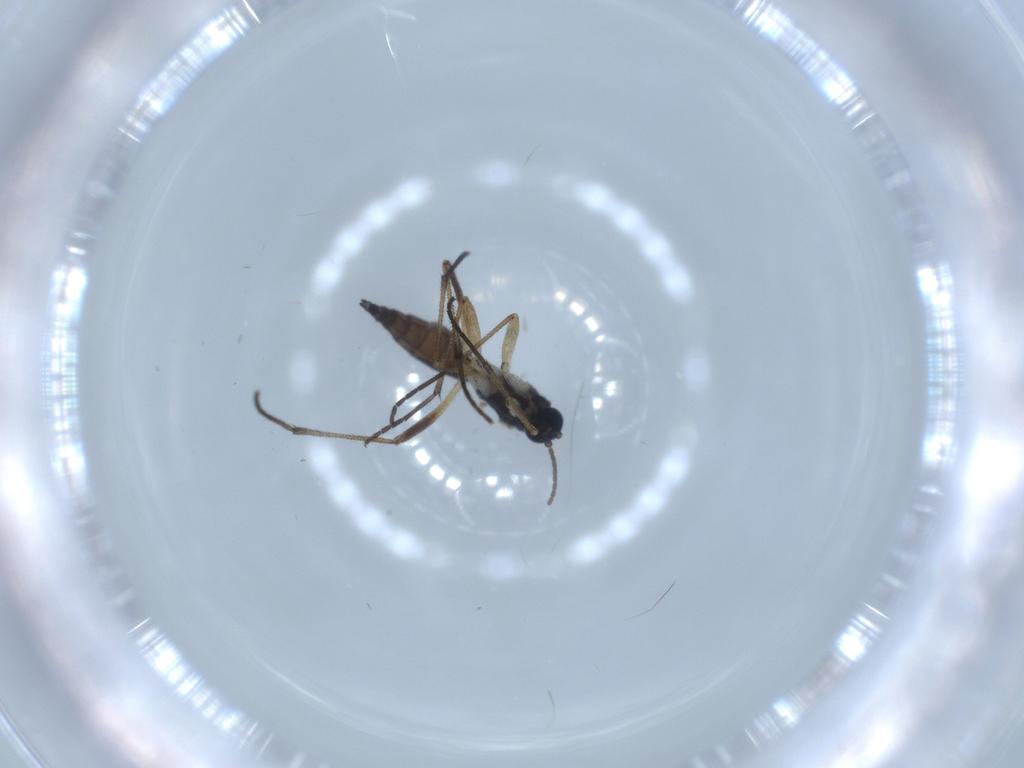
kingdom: Animalia
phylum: Arthropoda
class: Insecta
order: Diptera
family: Sciaridae
